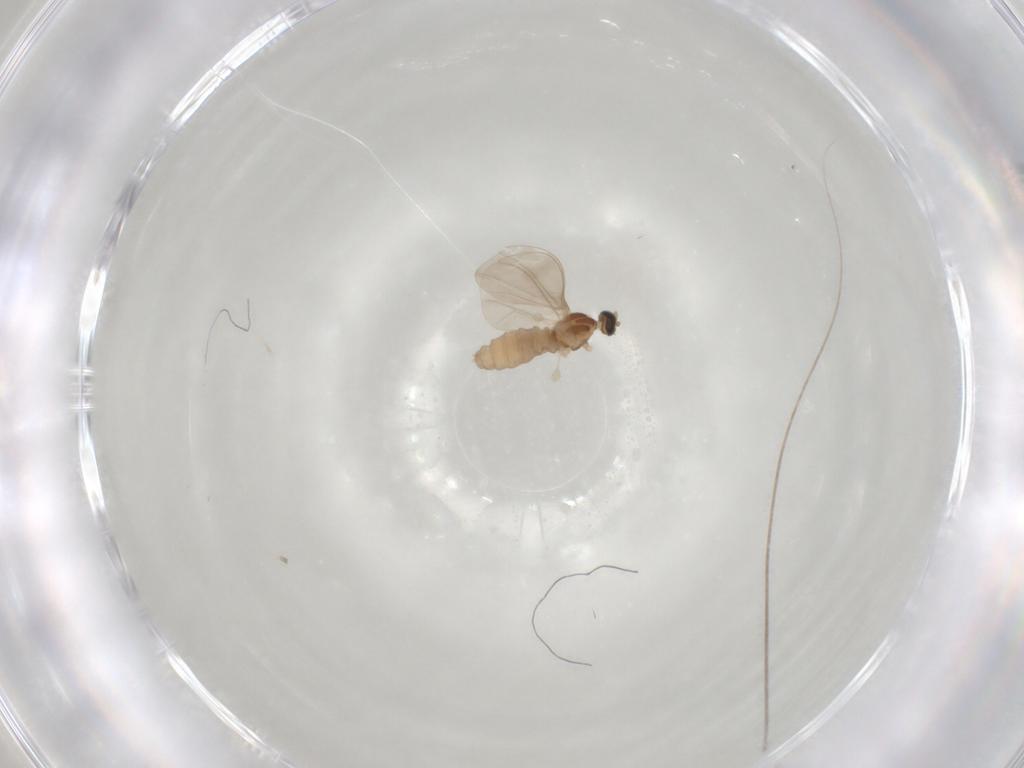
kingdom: Animalia
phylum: Arthropoda
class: Insecta
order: Diptera
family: Cecidomyiidae
